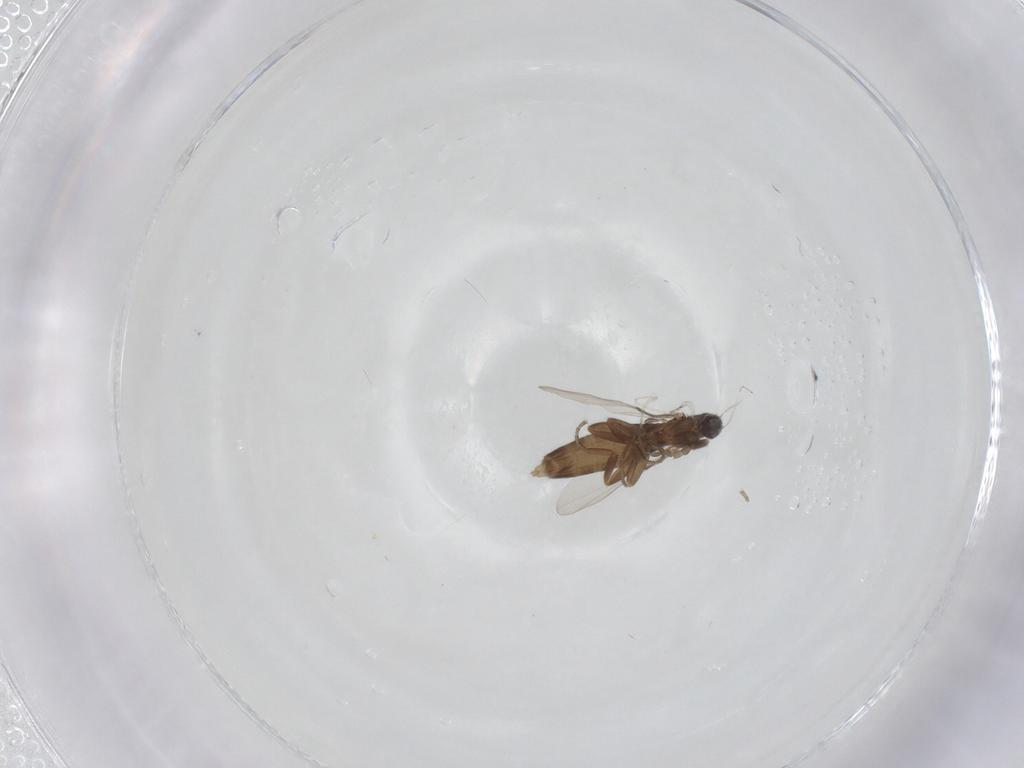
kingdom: Animalia
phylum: Arthropoda
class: Insecta
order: Diptera
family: Phoridae
